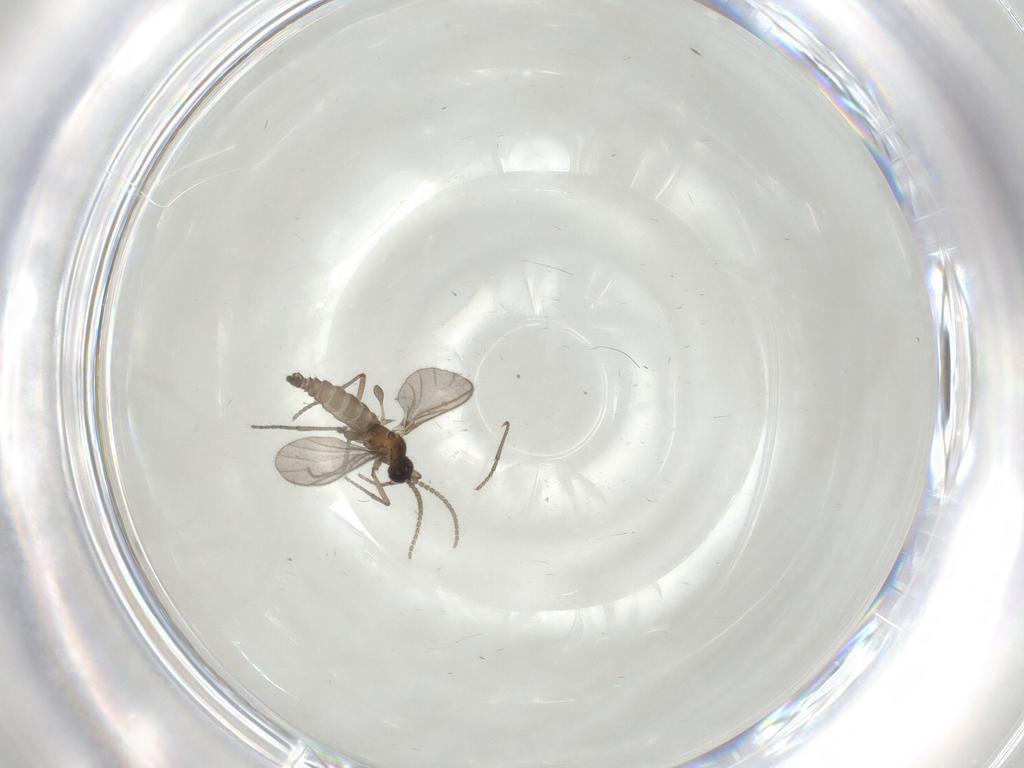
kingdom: Animalia
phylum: Arthropoda
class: Insecta
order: Diptera
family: Sciaridae
